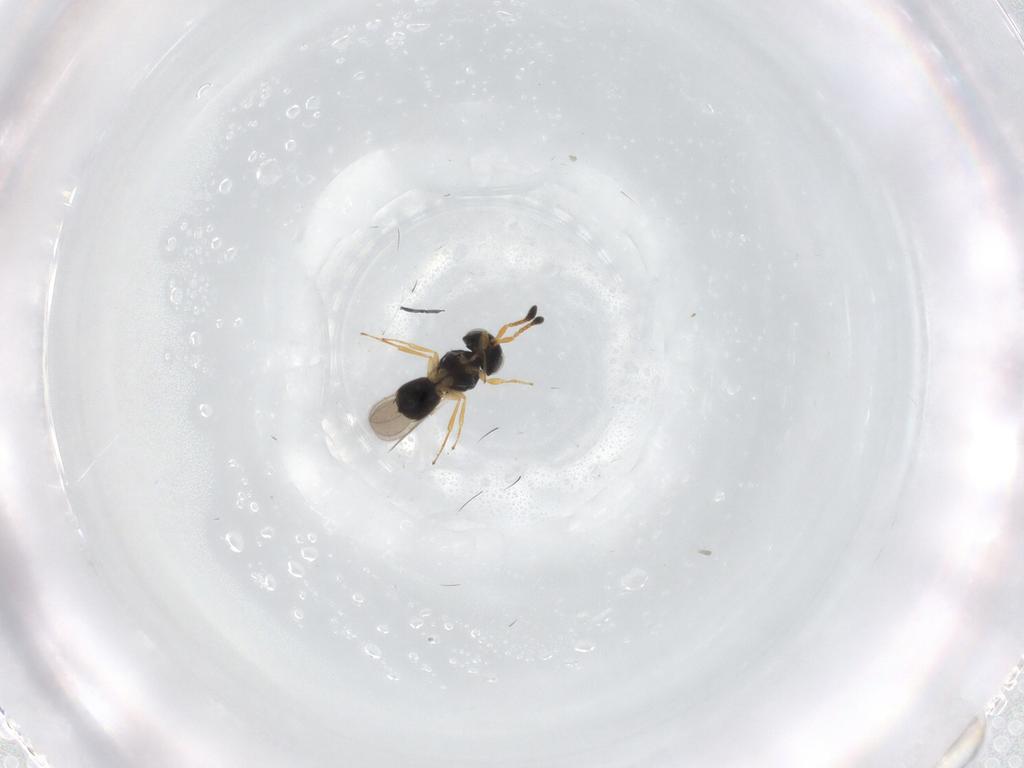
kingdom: Animalia
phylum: Arthropoda
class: Insecta
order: Hymenoptera
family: Scelionidae
